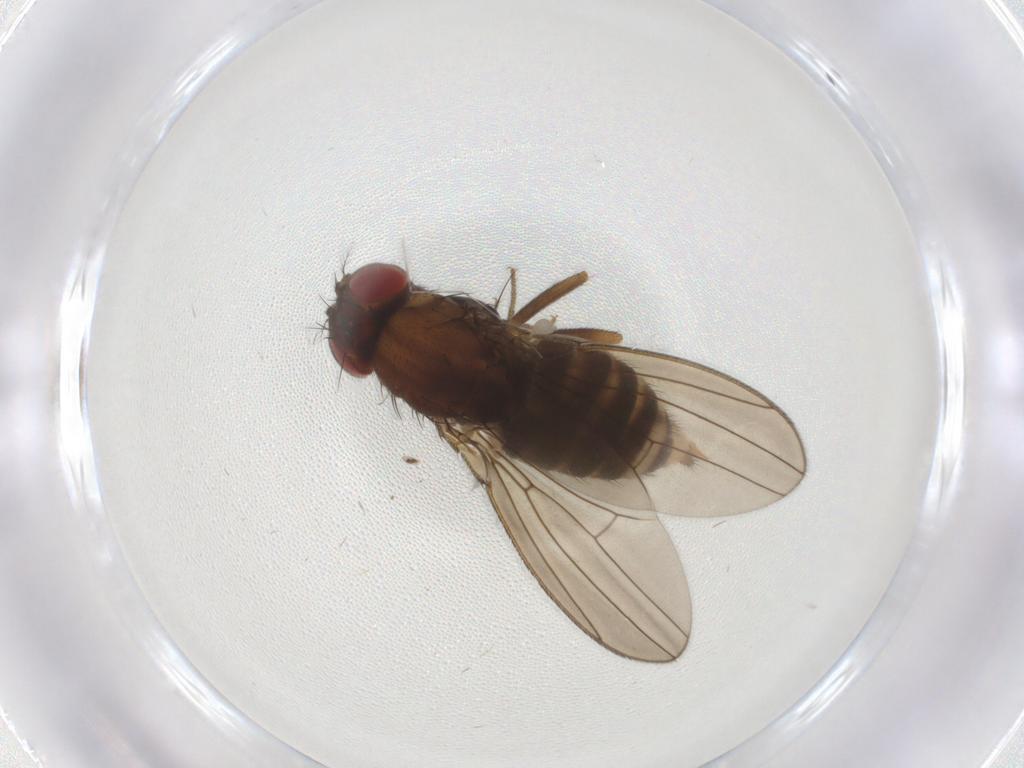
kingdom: Animalia
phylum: Arthropoda
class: Insecta
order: Diptera
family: Drosophilidae
